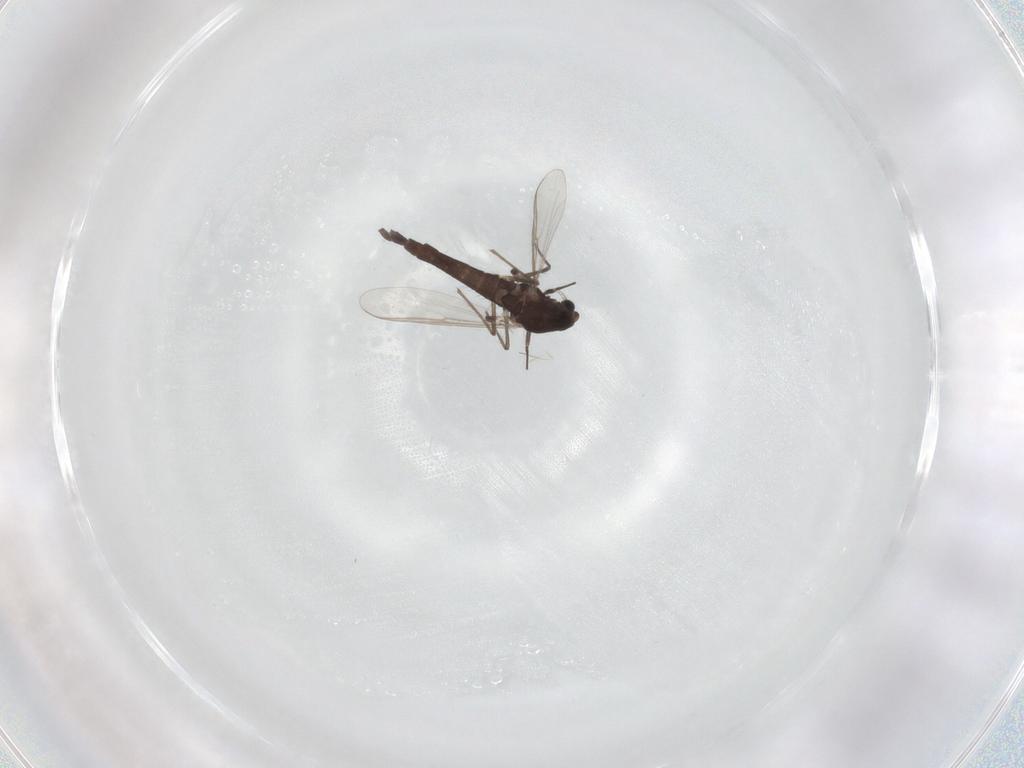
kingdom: Animalia
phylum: Arthropoda
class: Insecta
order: Diptera
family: Chironomidae
